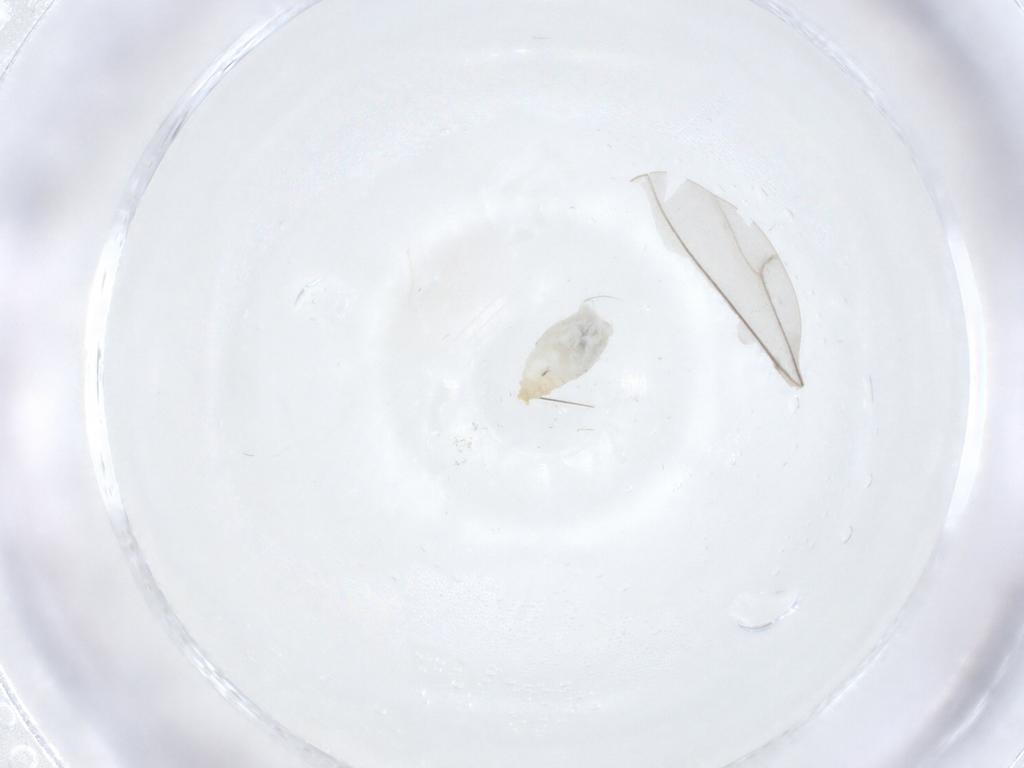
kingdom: Animalia
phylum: Arthropoda
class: Insecta
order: Diptera
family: Cecidomyiidae
